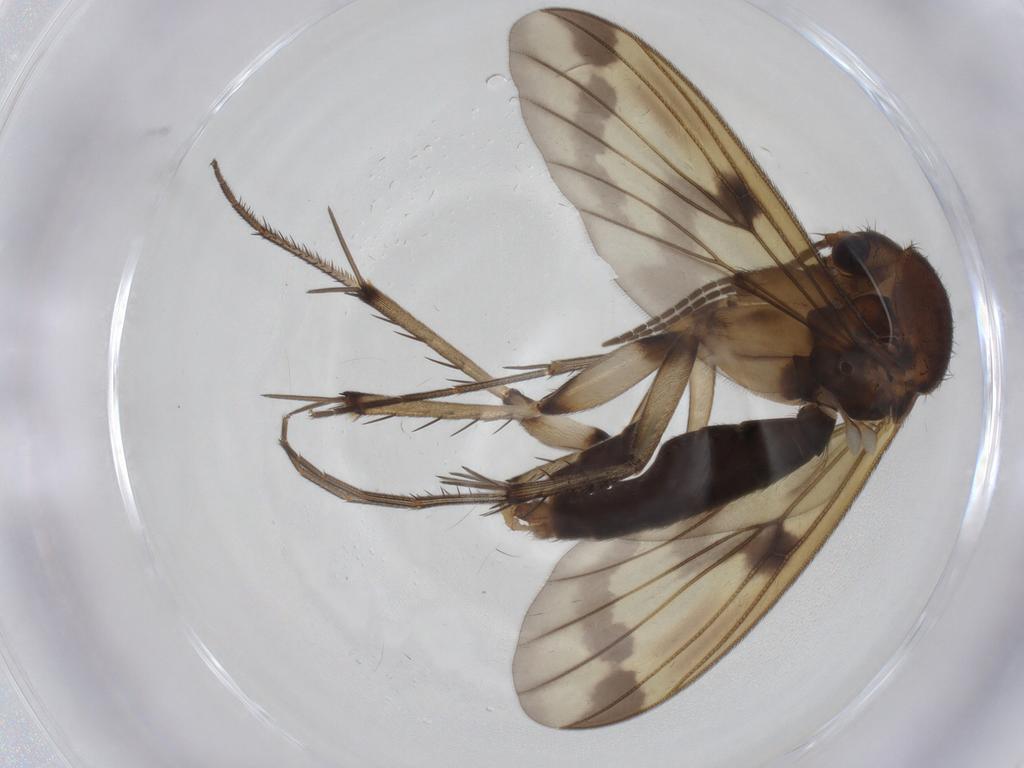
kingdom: Animalia
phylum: Arthropoda
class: Insecta
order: Diptera
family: Chironomidae
